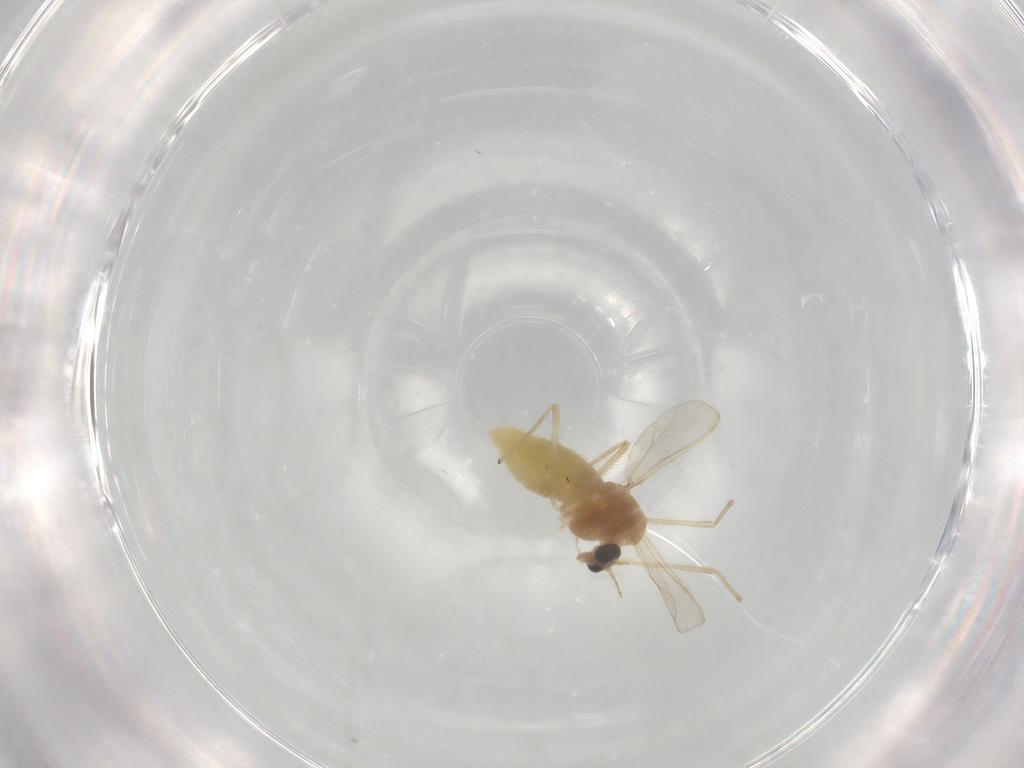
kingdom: Animalia
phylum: Arthropoda
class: Insecta
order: Diptera
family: Chironomidae
